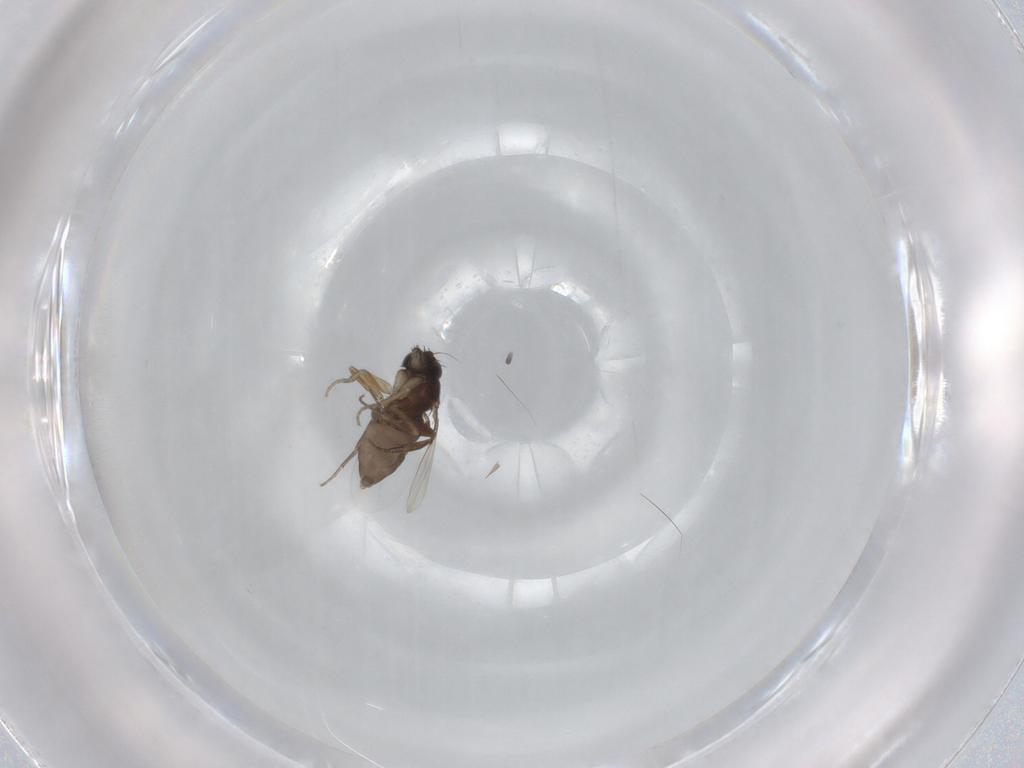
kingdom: Animalia
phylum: Arthropoda
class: Insecta
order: Diptera
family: Phoridae
